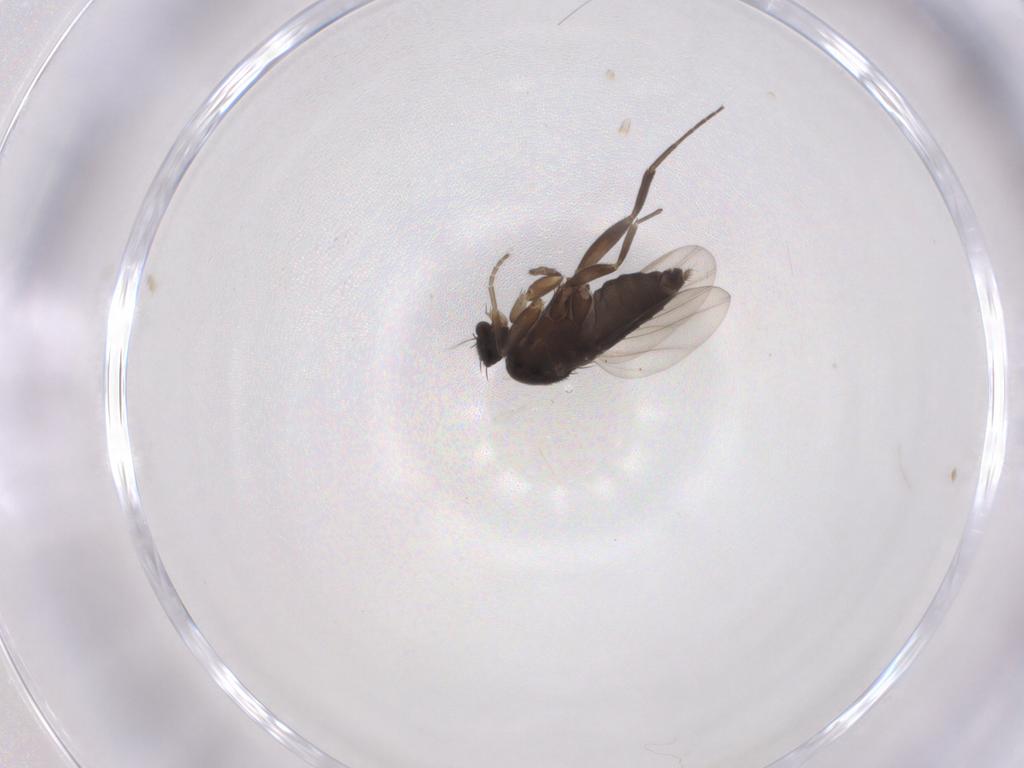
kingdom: Animalia
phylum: Arthropoda
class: Insecta
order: Diptera
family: Phoridae
